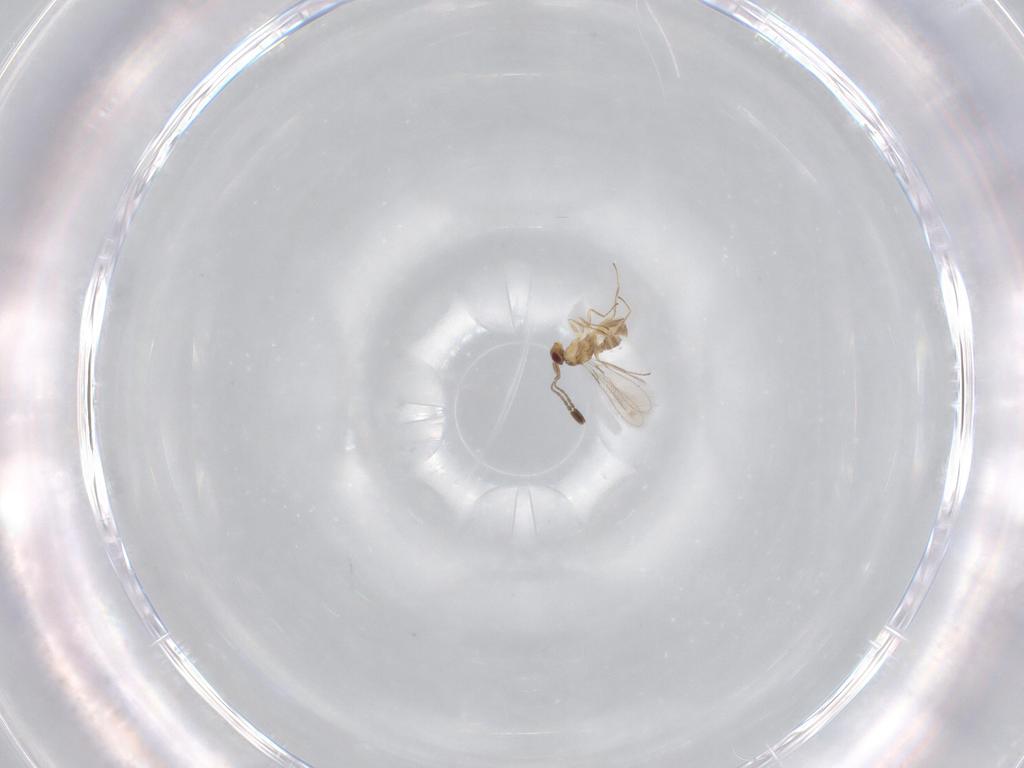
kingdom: Animalia
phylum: Arthropoda
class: Insecta
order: Hymenoptera
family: Mymaridae
